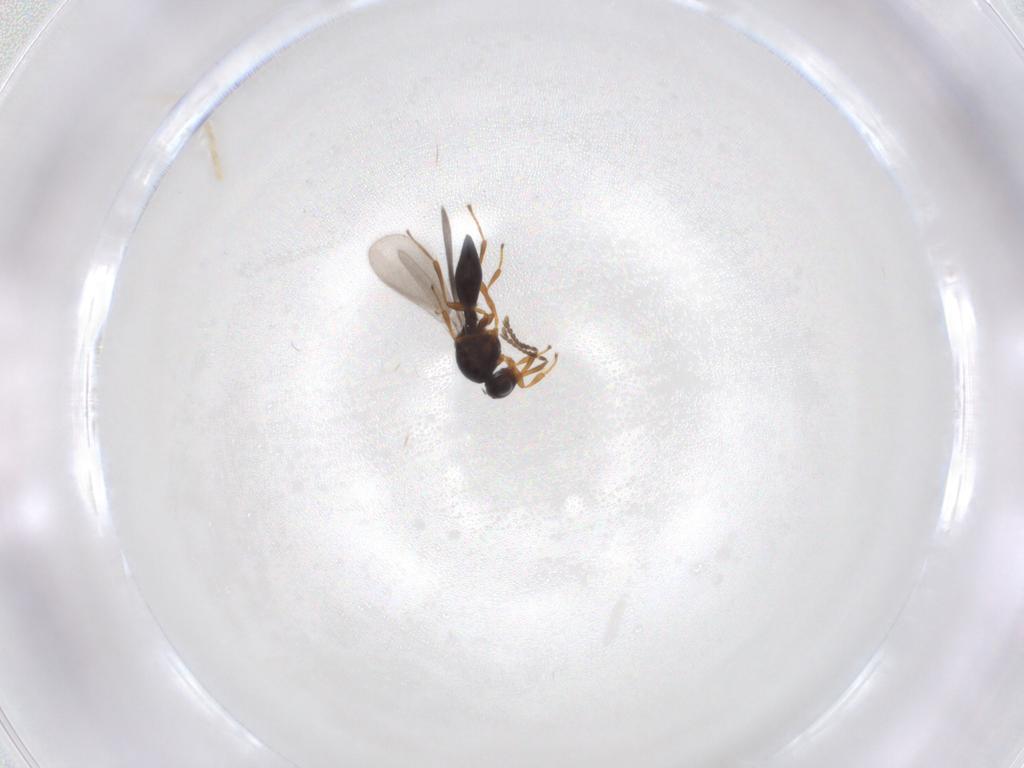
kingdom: Animalia
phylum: Arthropoda
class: Insecta
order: Hymenoptera
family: Platygastridae
